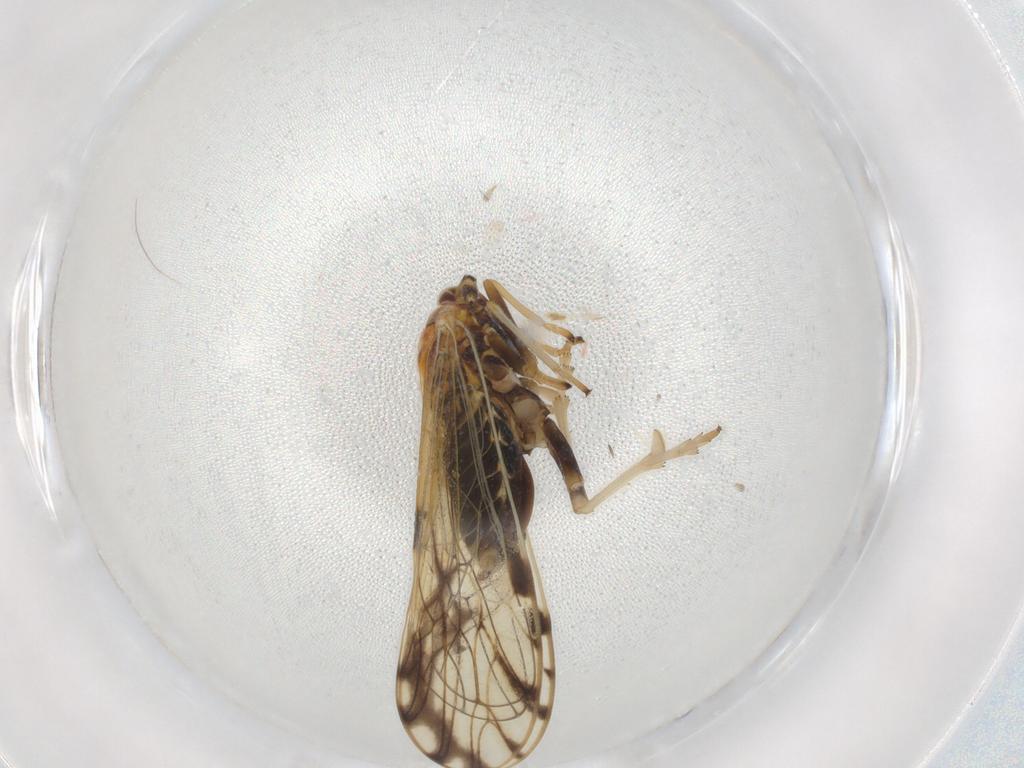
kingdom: Animalia
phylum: Arthropoda
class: Insecta
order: Hemiptera
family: Delphacidae
